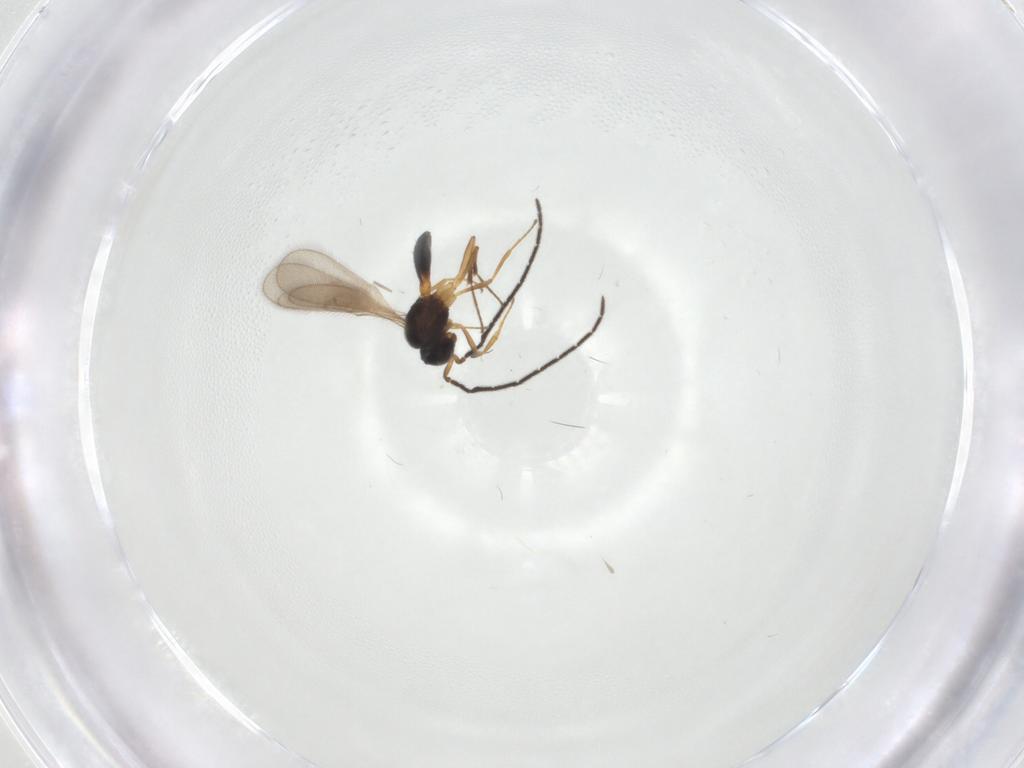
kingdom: Animalia
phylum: Arthropoda
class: Insecta
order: Hymenoptera
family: Scelionidae
